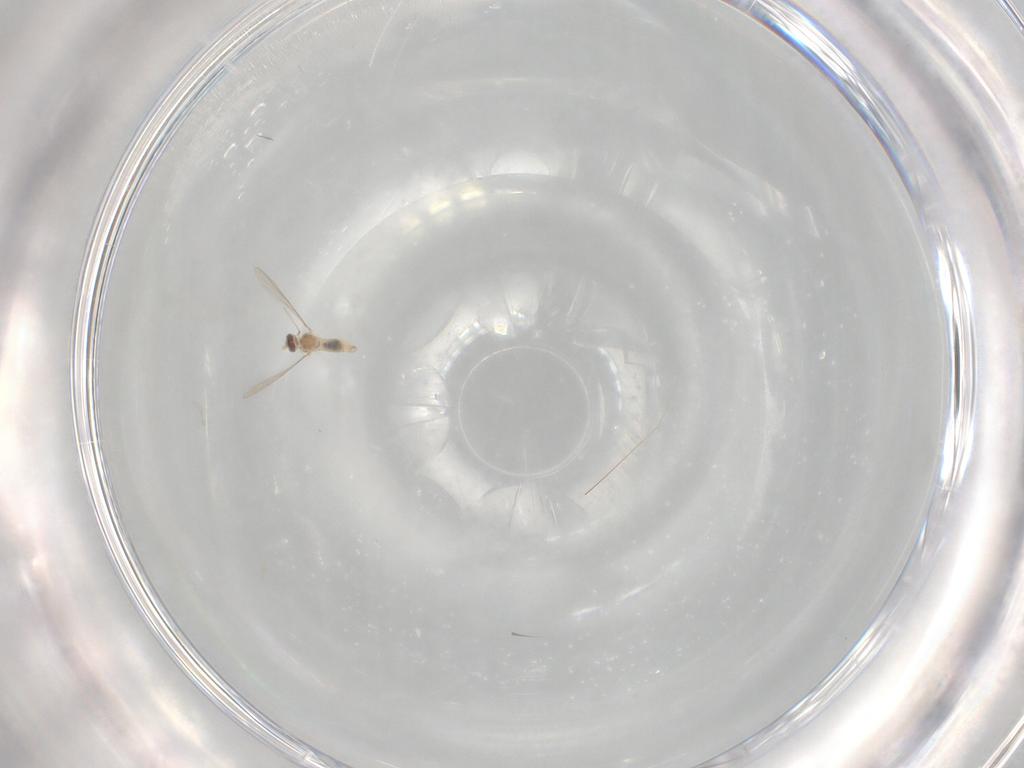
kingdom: Animalia
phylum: Arthropoda
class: Insecta
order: Diptera
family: Cecidomyiidae
